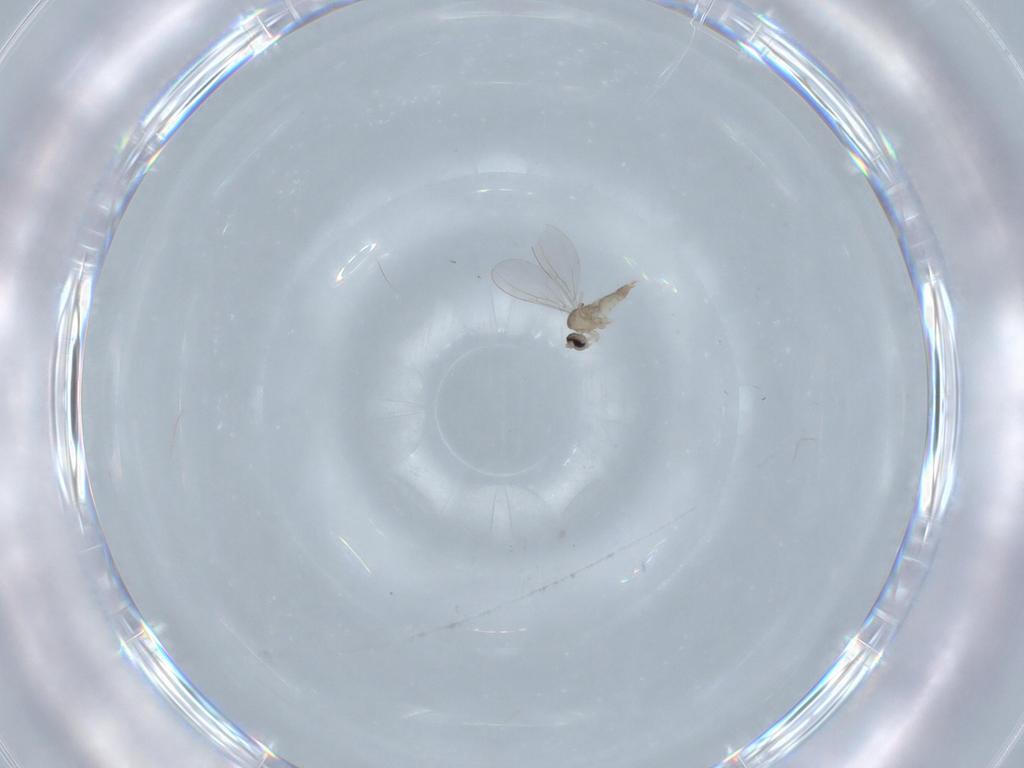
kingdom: Animalia
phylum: Arthropoda
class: Insecta
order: Diptera
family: Cecidomyiidae
